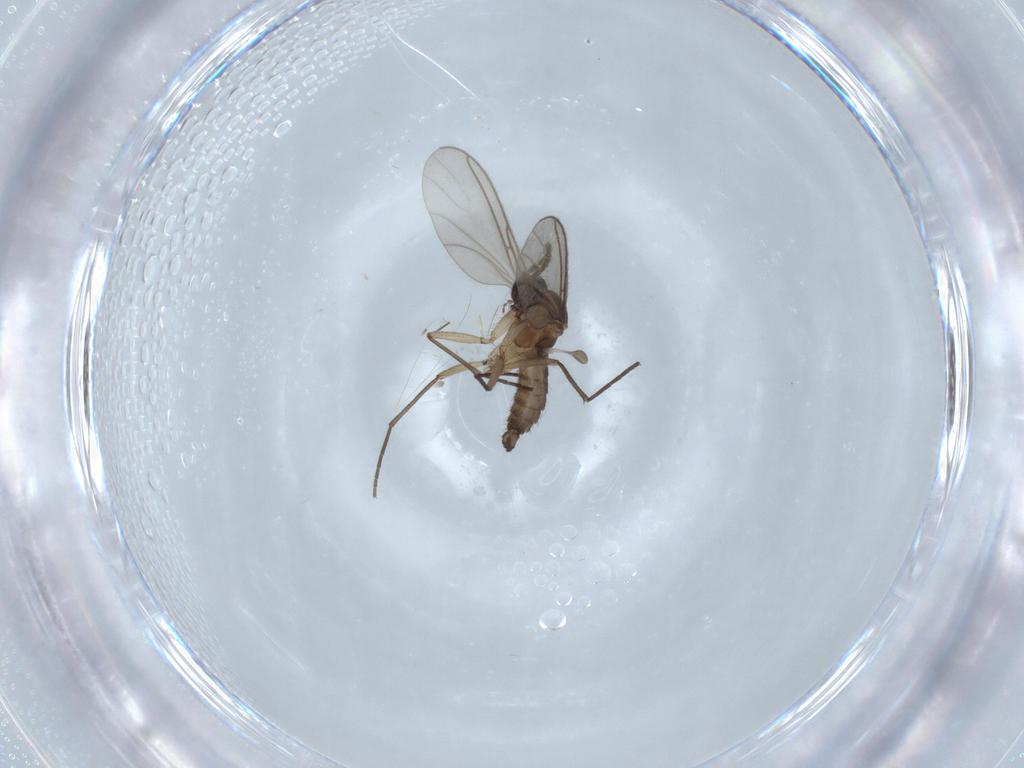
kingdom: Animalia
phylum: Arthropoda
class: Insecta
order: Diptera
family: Sciaridae
